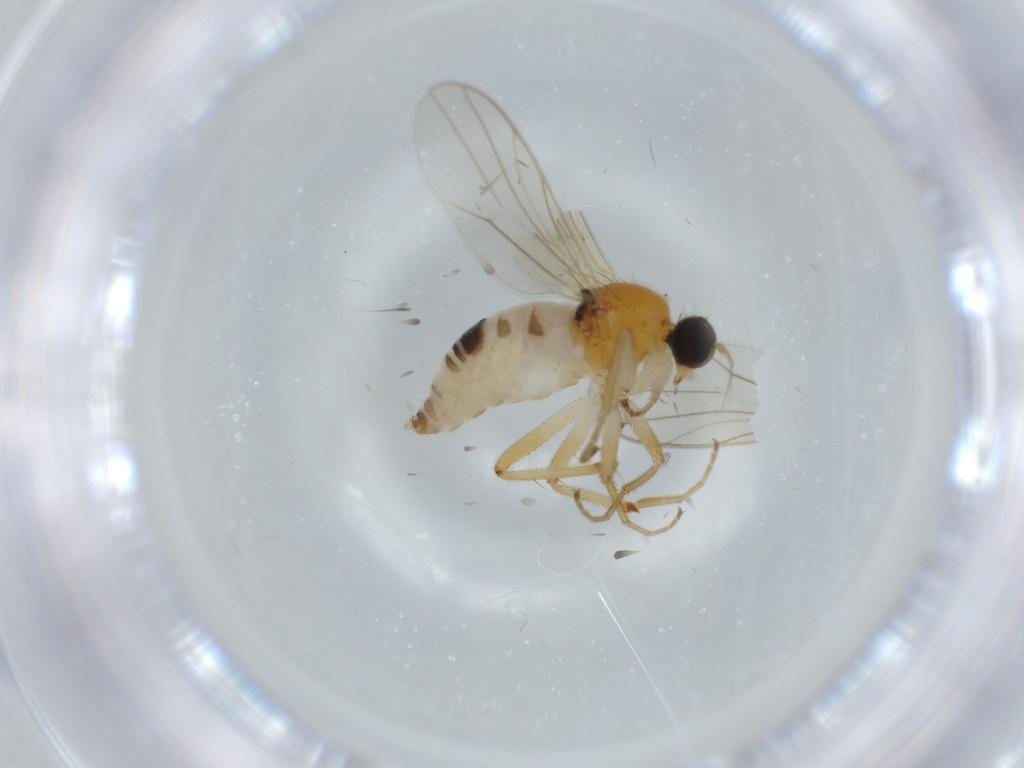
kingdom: Animalia
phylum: Arthropoda
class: Insecta
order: Diptera
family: Hybotidae
